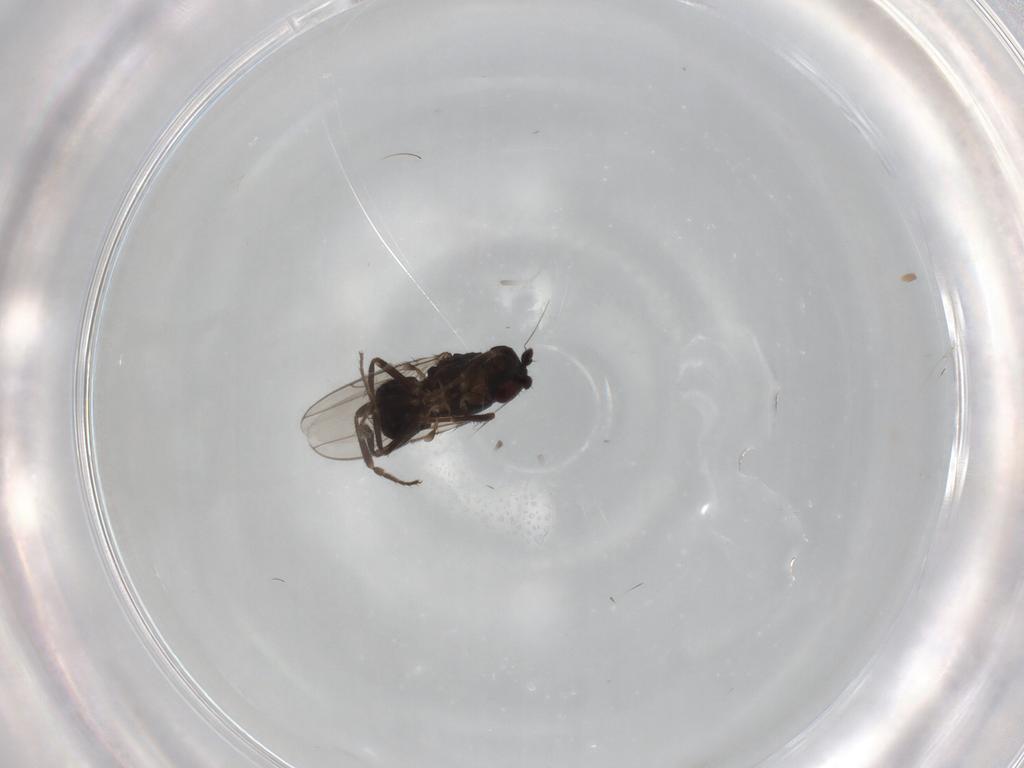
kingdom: Animalia
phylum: Arthropoda
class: Insecta
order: Diptera
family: Sphaeroceridae
